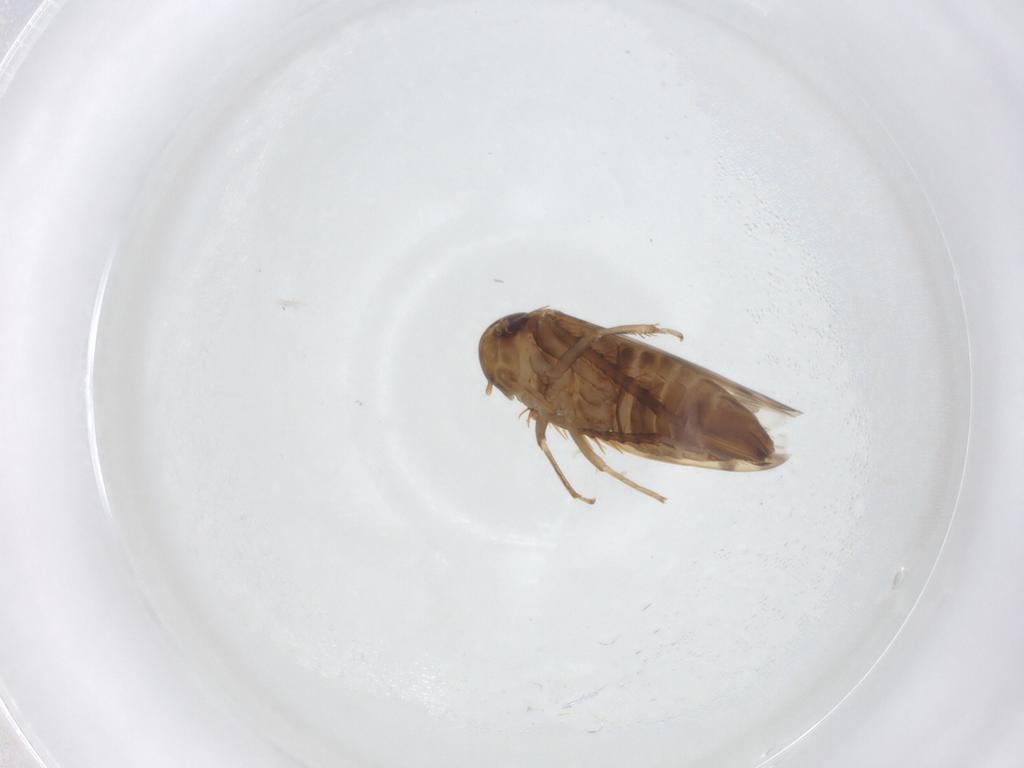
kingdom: Animalia
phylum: Arthropoda
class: Insecta
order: Hemiptera
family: Cicadellidae
